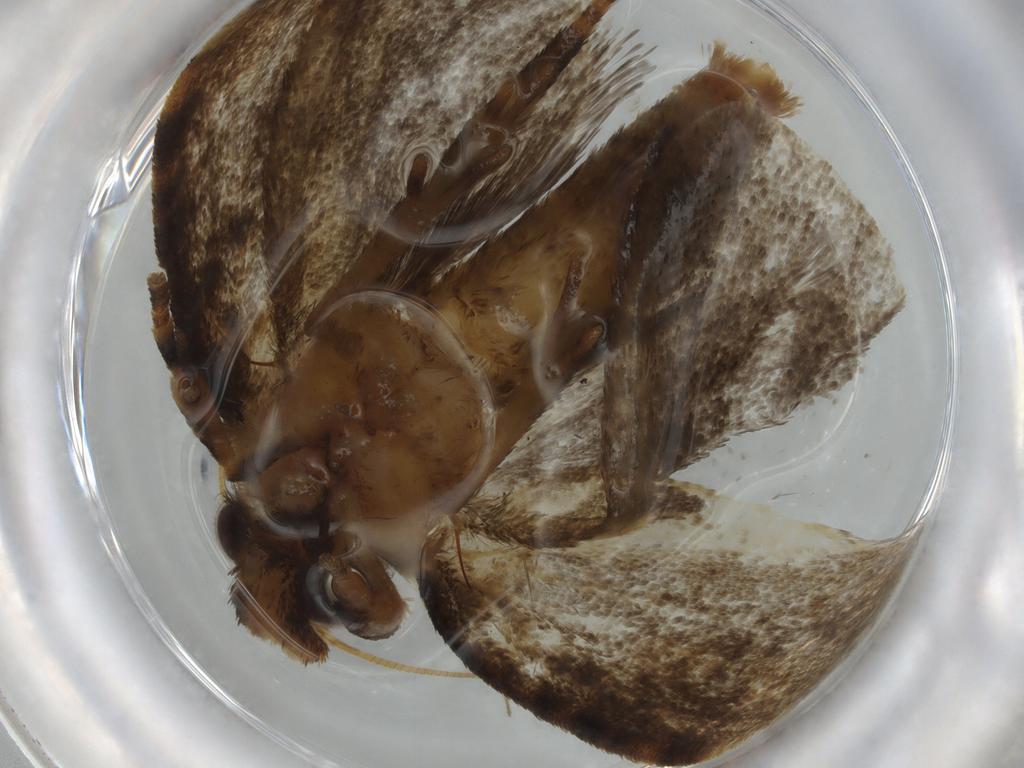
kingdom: Animalia
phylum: Arthropoda
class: Insecta
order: Lepidoptera
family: Tineidae
